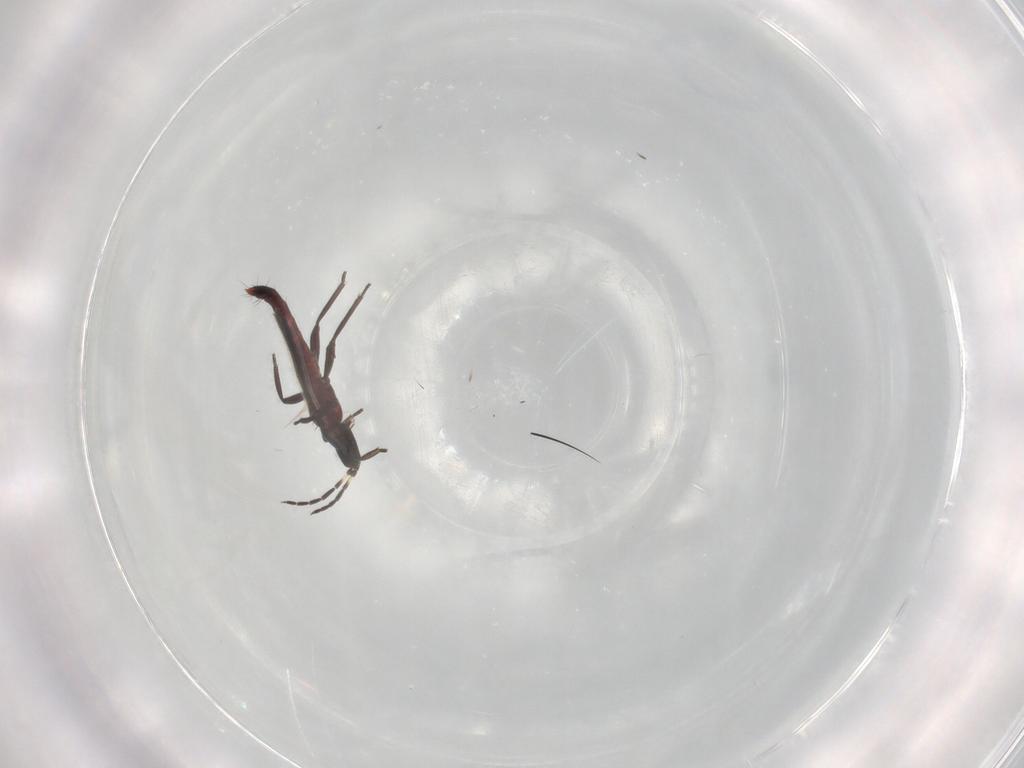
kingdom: Animalia
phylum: Arthropoda
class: Insecta
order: Thysanoptera
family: Aeolothripidae
